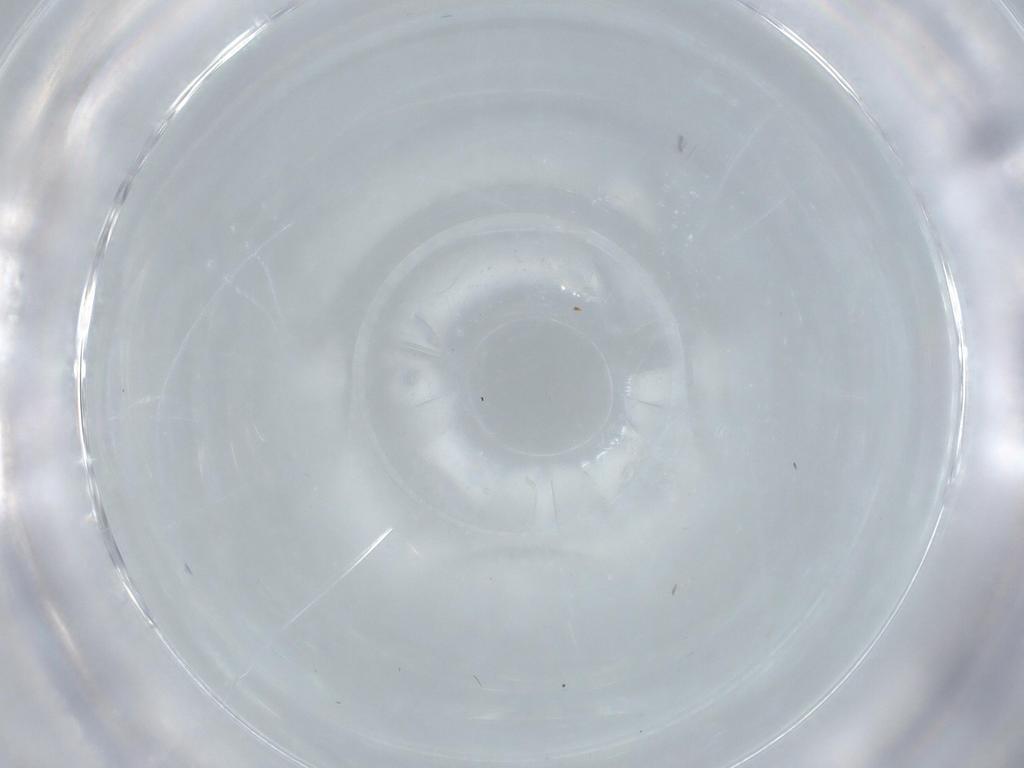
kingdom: Animalia
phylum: Arthropoda
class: Insecta
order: Diptera
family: Phoridae
